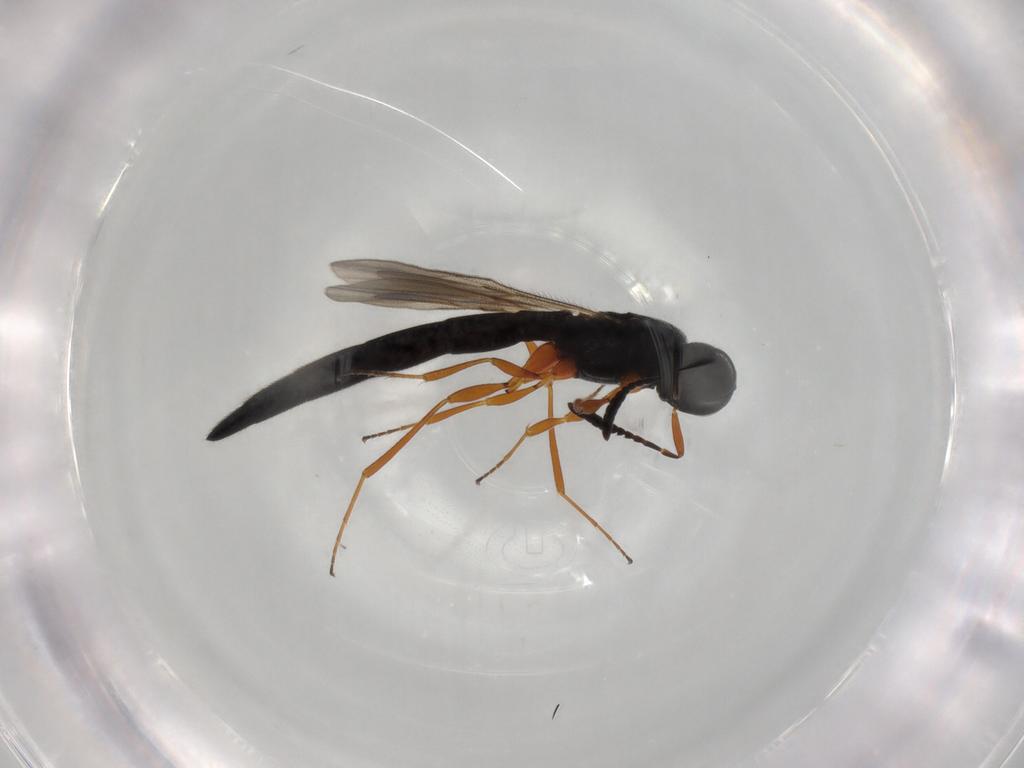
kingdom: Animalia
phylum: Arthropoda
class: Insecta
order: Hymenoptera
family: Scelionidae
